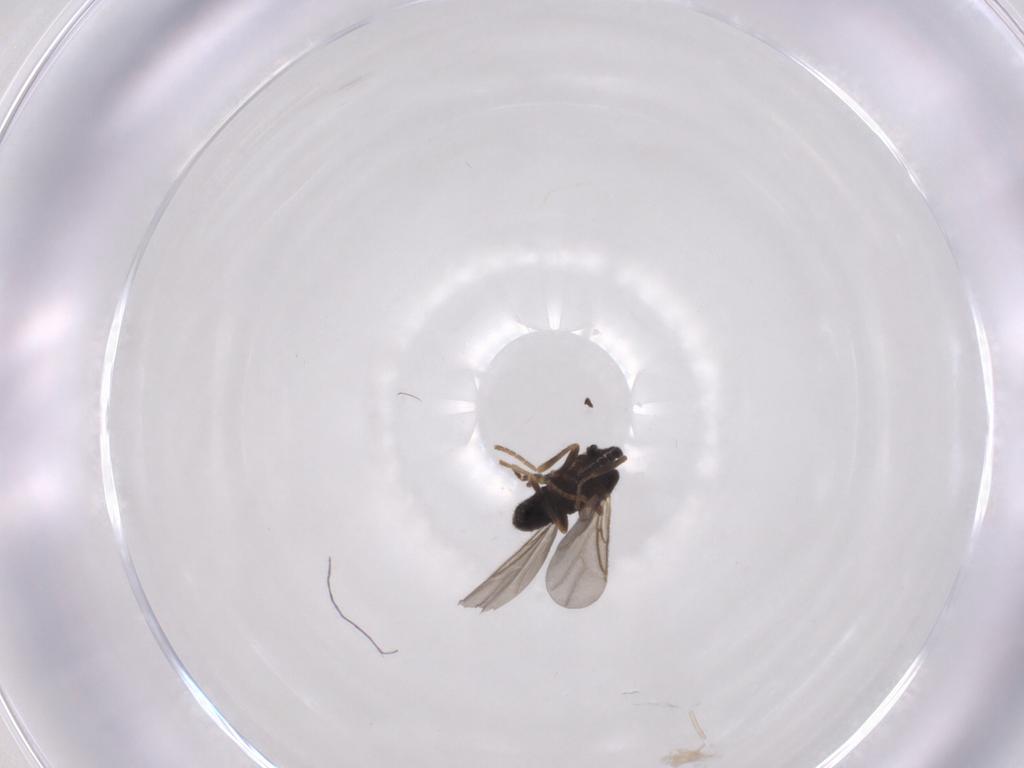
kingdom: Animalia
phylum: Arthropoda
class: Insecta
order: Diptera
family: Scatopsidae
